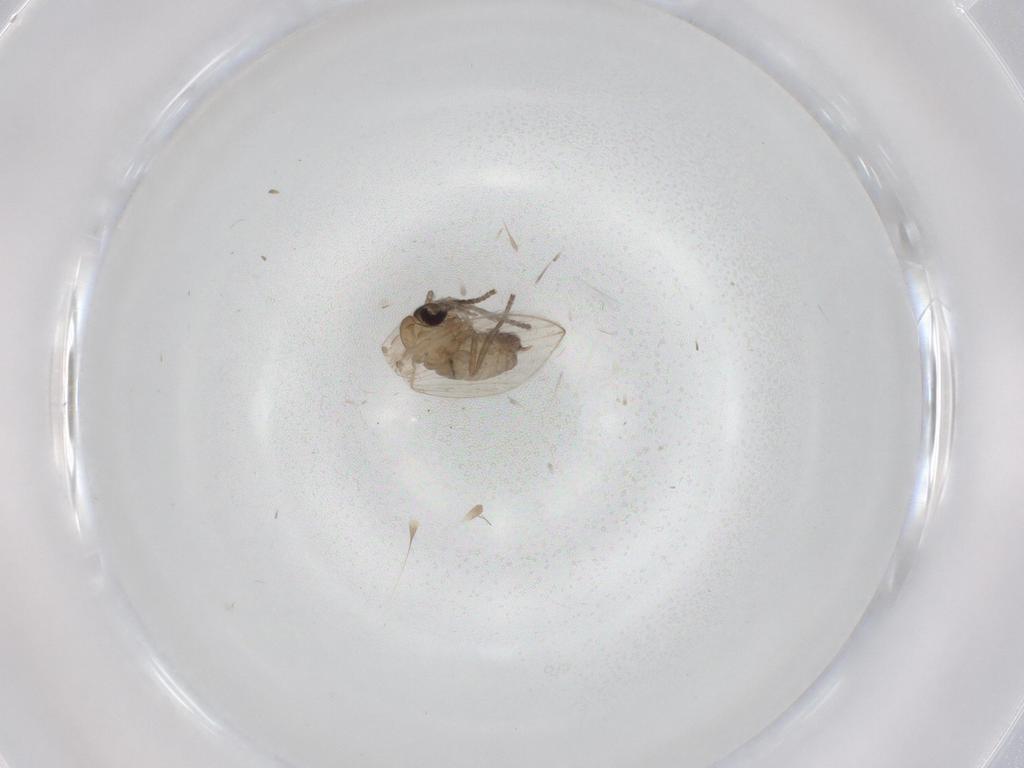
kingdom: Animalia
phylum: Arthropoda
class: Insecta
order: Diptera
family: Psychodidae
